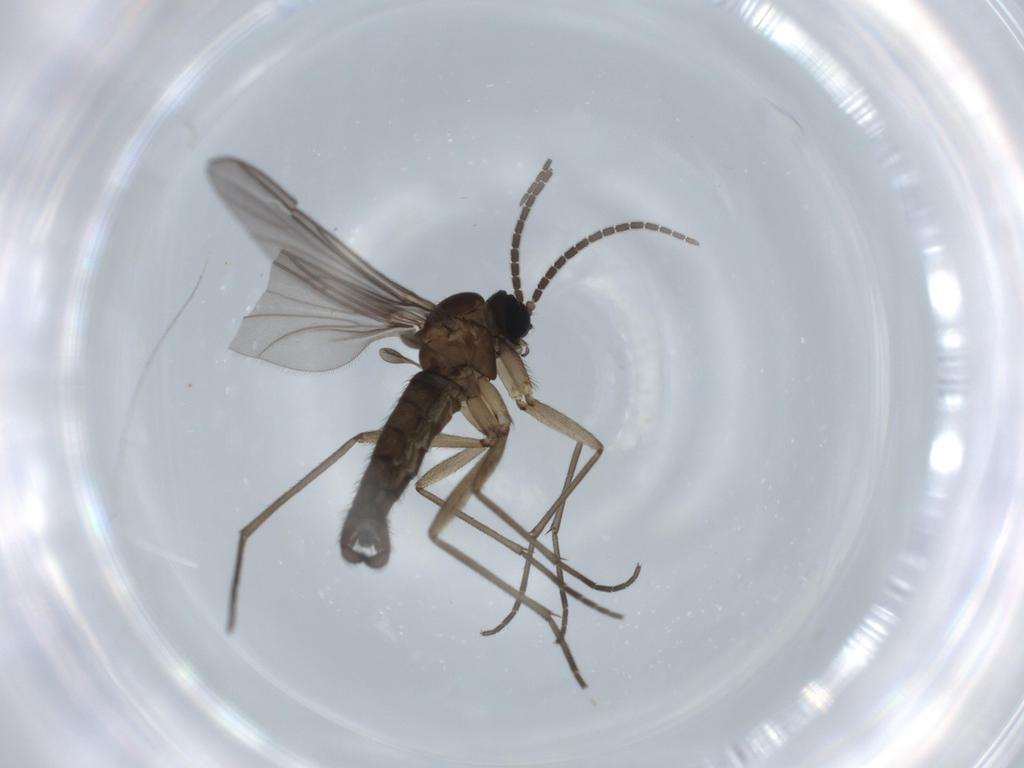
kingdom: Animalia
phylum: Arthropoda
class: Insecta
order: Diptera
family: Sciaridae
